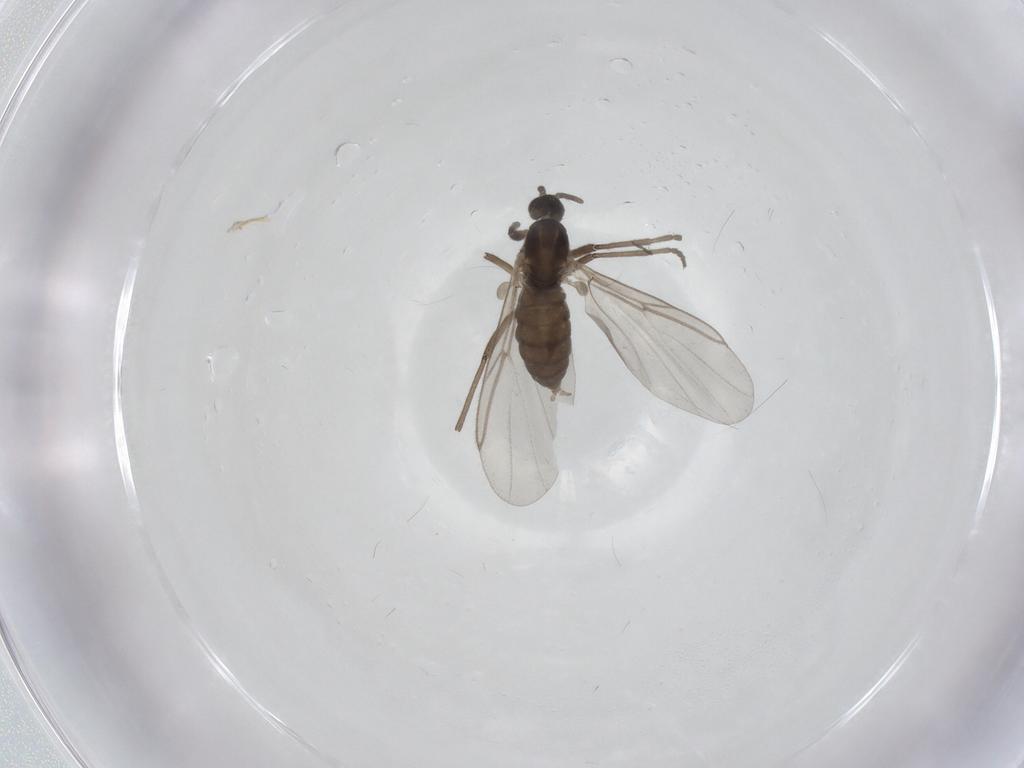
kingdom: Animalia
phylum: Arthropoda
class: Insecta
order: Diptera
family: Cecidomyiidae
